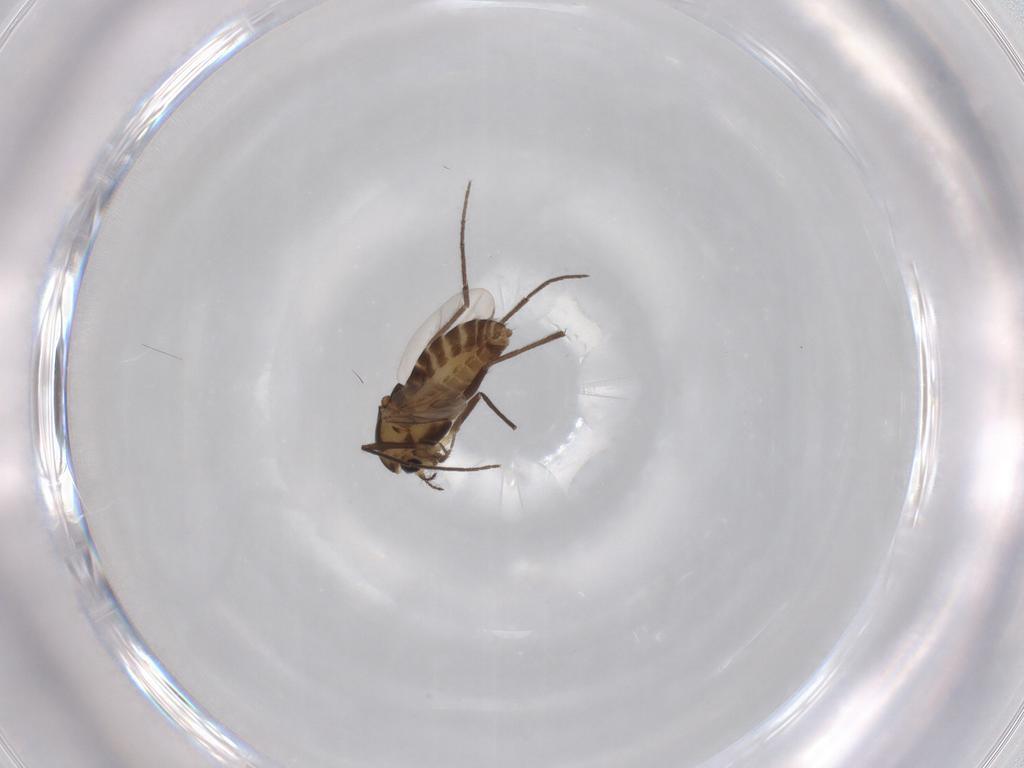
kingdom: Animalia
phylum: Arthropoda
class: Insecta
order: Diptera
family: Chironomidae
